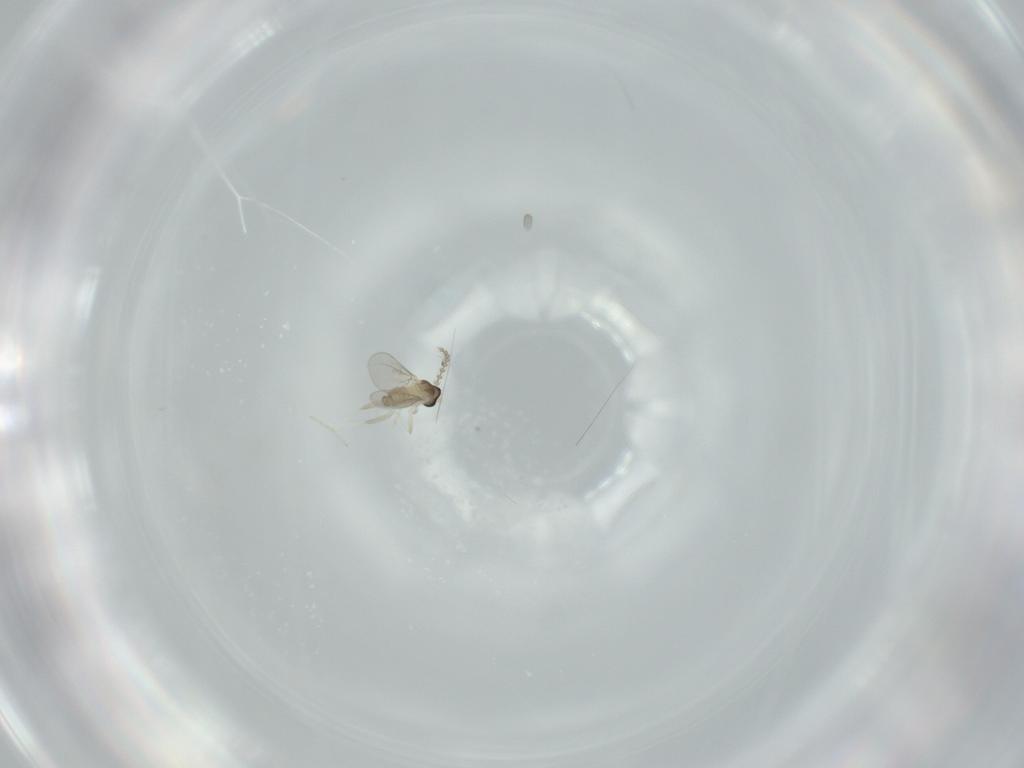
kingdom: Animalia
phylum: Arthropoda
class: Insecta
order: Diptera
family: Cecidomyiidae
